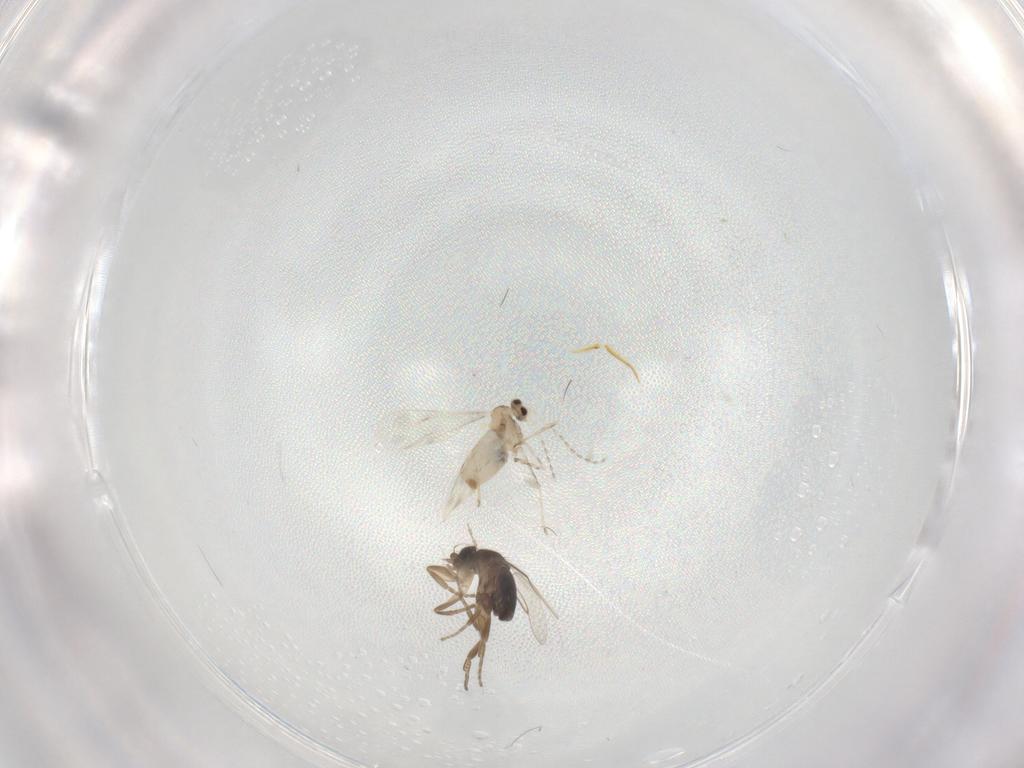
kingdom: Animalia
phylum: Arthropoda
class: Insecta
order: Diptera
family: Cecidomyiidae
